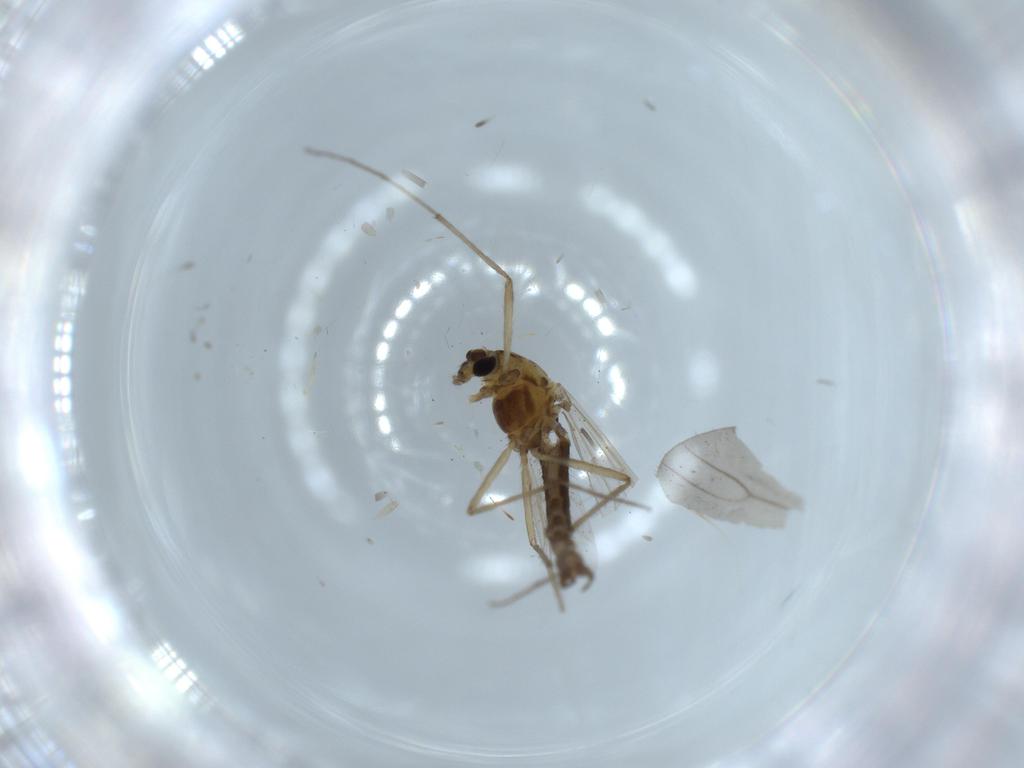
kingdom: Animalia
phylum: Arthropoda
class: Insecta
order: Diptera
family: Chironomidae
